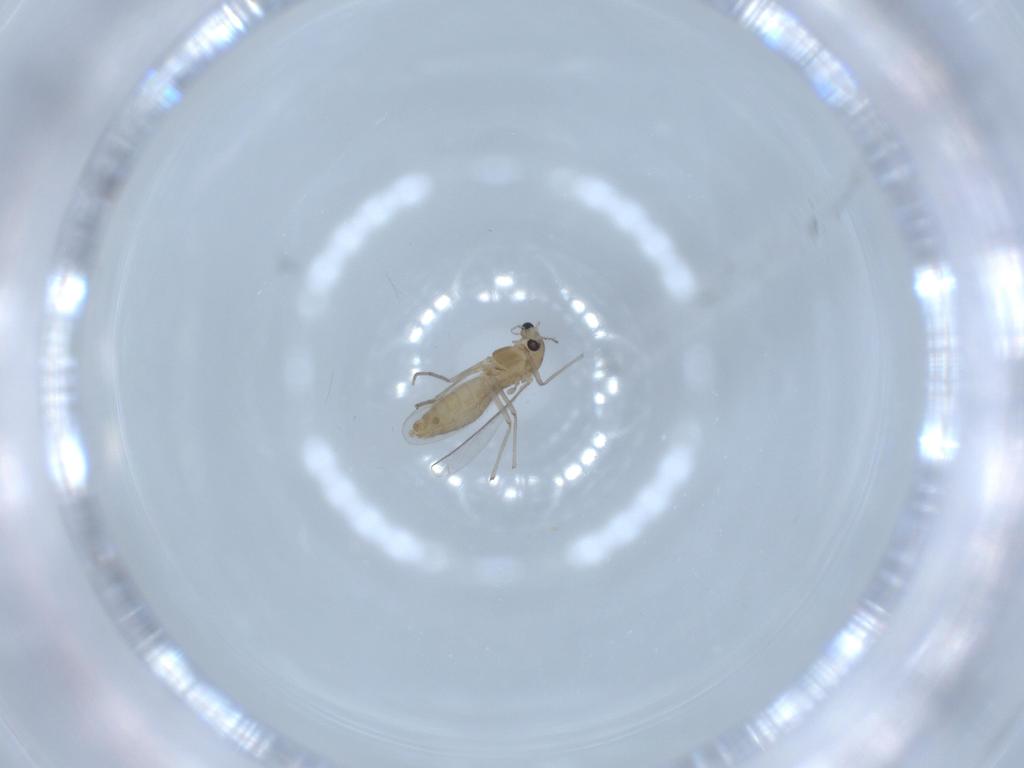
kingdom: Animalia
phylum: Arthropoda
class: Insecta
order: Diptera
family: Chironomidae
